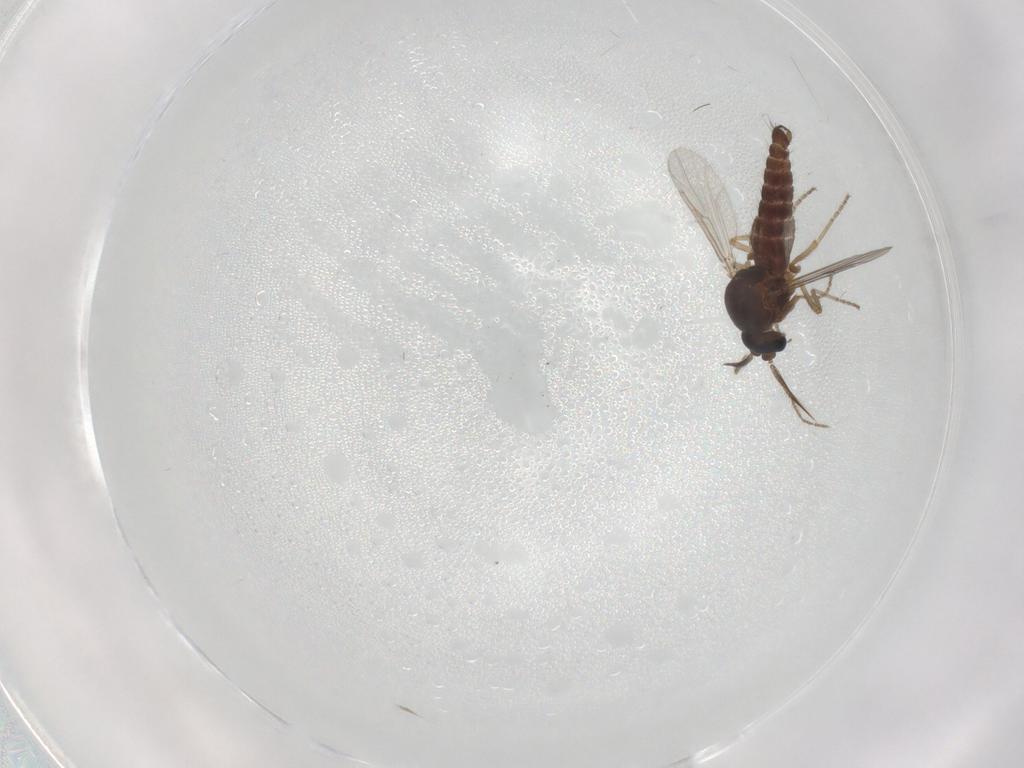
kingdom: Animalia
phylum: Arthropoda
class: Insecta
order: Diptera
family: Ceratopogonidae
